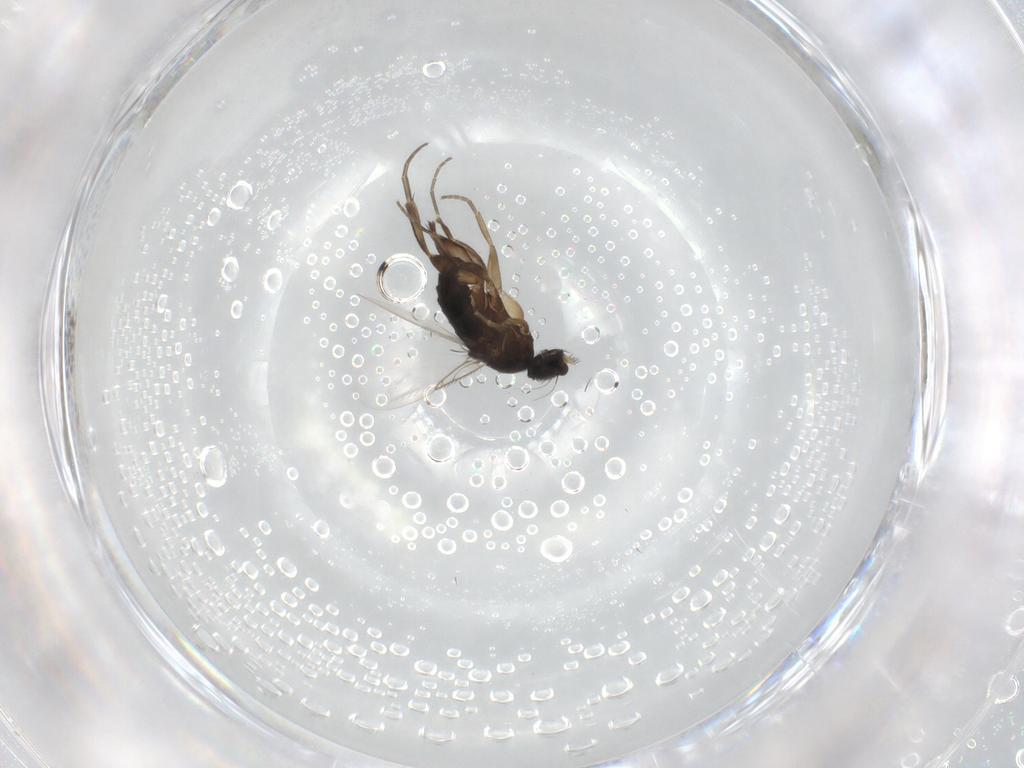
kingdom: Animalia
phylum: Arthropoda
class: Insecta
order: Diptera
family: Phoridae
